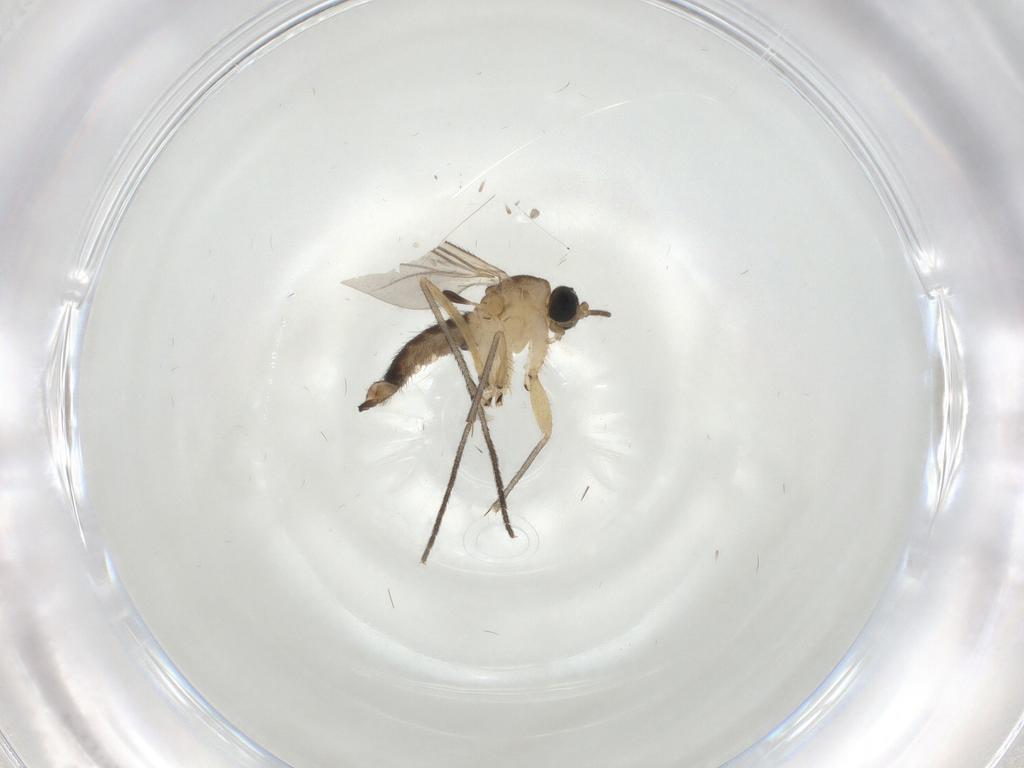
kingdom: Animalia
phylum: Arthropoda
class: Insecta
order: Diptera
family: Sciaridae
